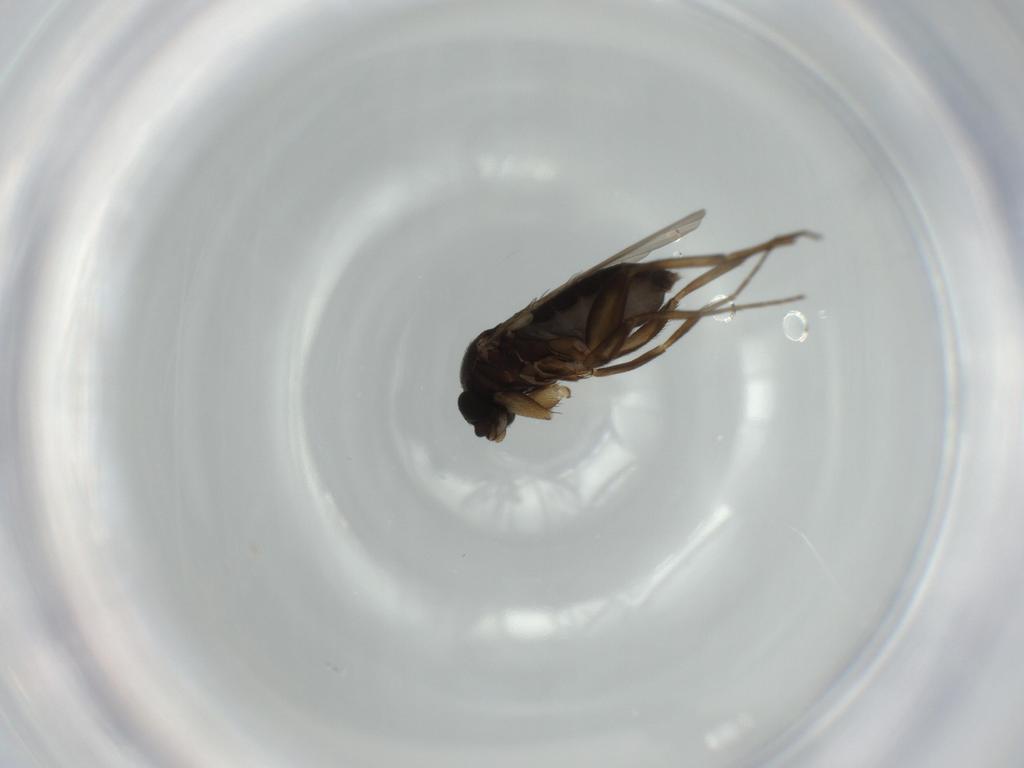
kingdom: Animalia
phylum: Arthropoda
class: Insecta
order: Diptera
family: Phoridae
